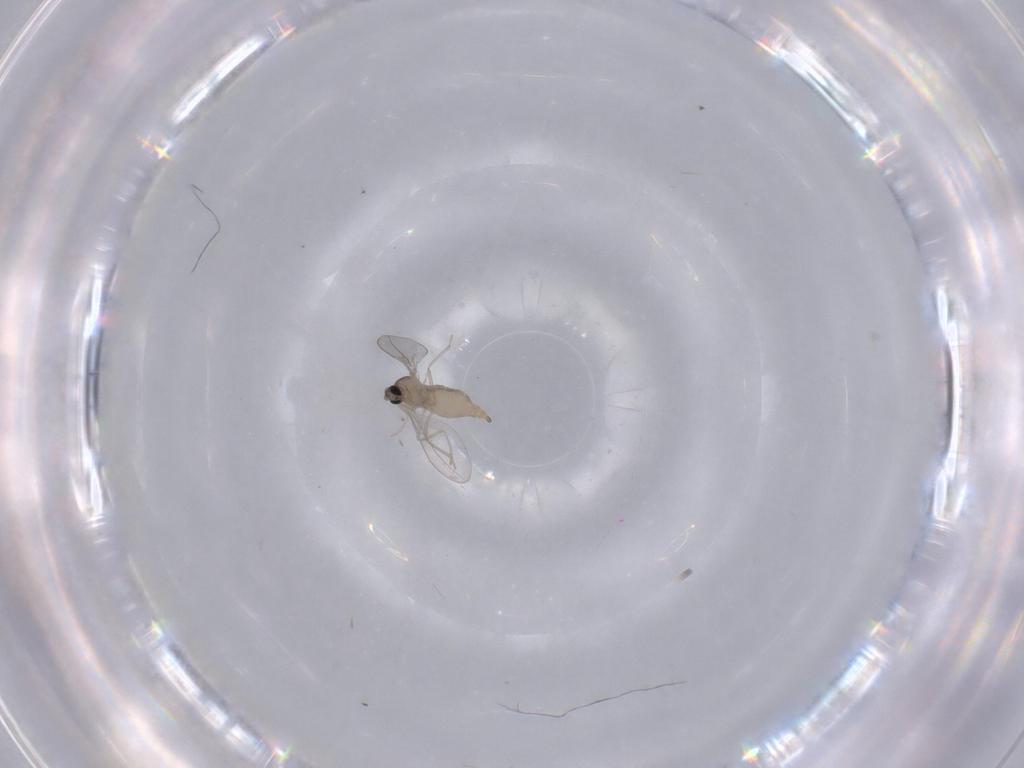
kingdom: Animalia
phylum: Arthropoda
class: Insecta
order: Diptera
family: Cecidomyiidae
